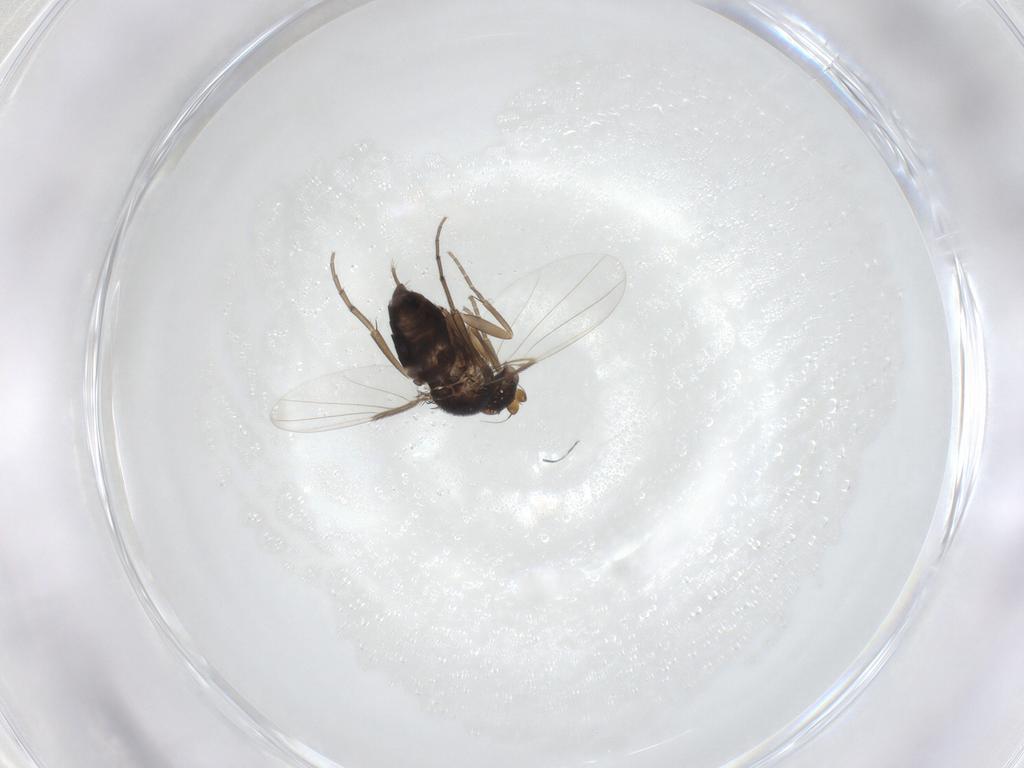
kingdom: Animalia
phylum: Arthropoda
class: Insecta
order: Diptera
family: Phoridae
